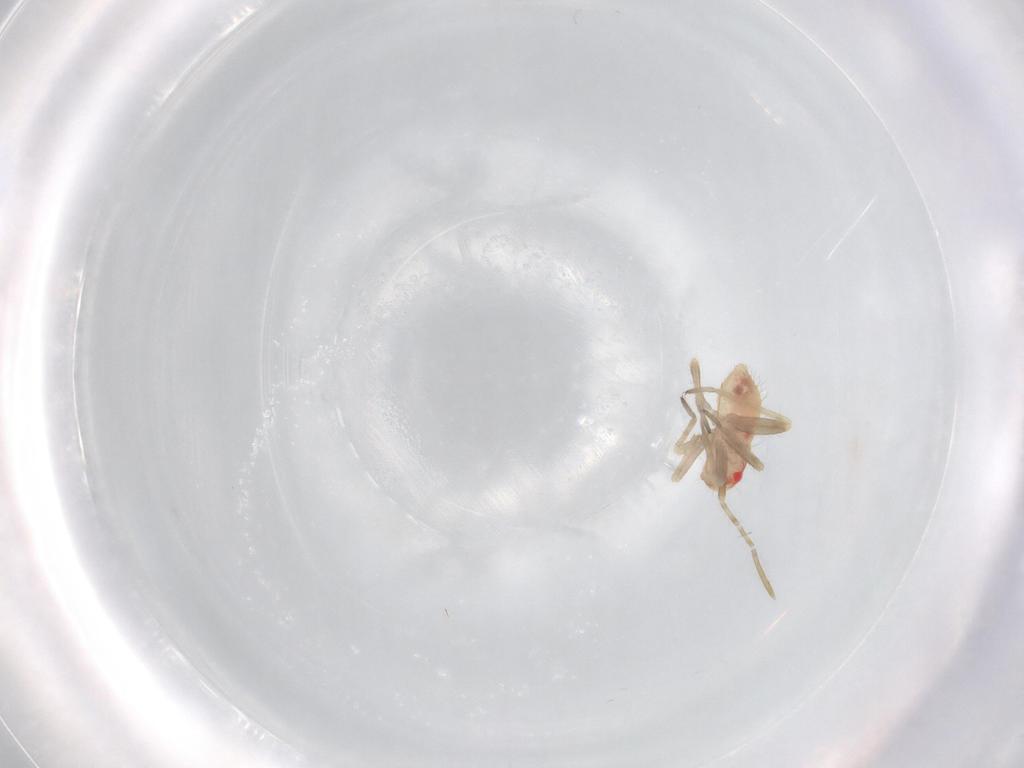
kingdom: Animalia
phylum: Arthropoda
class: Insecta
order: Hemiptera
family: Miridae
